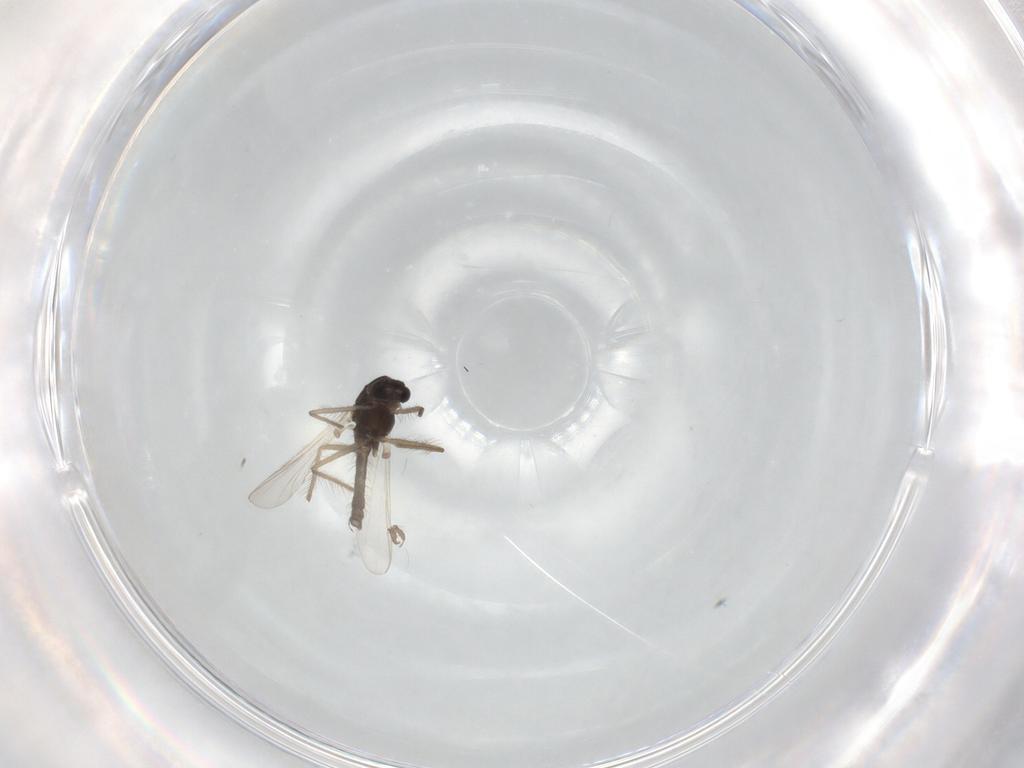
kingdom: Animalia
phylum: Arthropoda
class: Insecta
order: Diptera
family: Chironomidae
